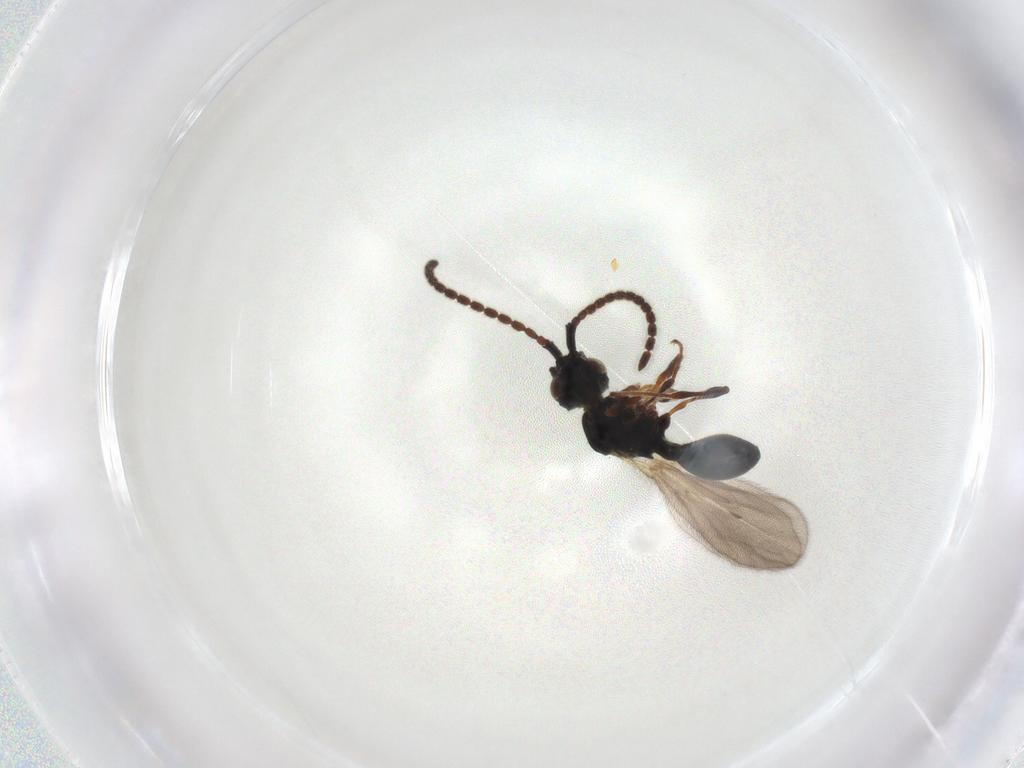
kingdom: Animalia
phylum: Arthropoda
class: Insecta
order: Hymenoptera
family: Diapriidae
